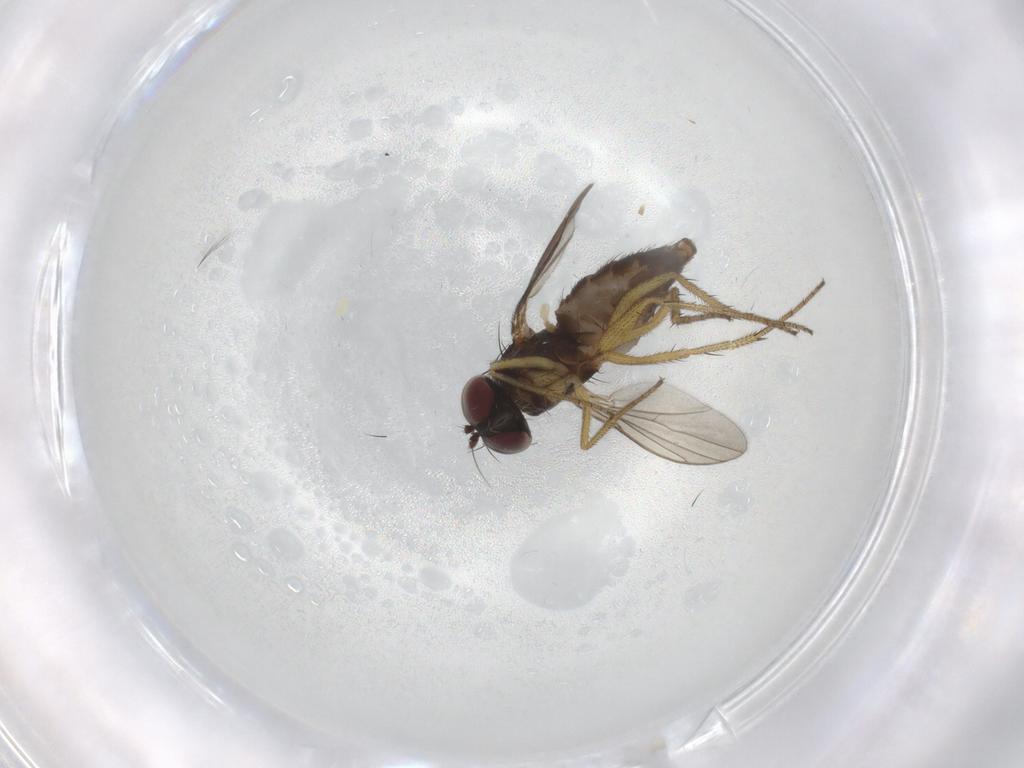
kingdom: Animalia
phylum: Arthropoda
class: Insecta
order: Diptera
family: Dolichopodidae
